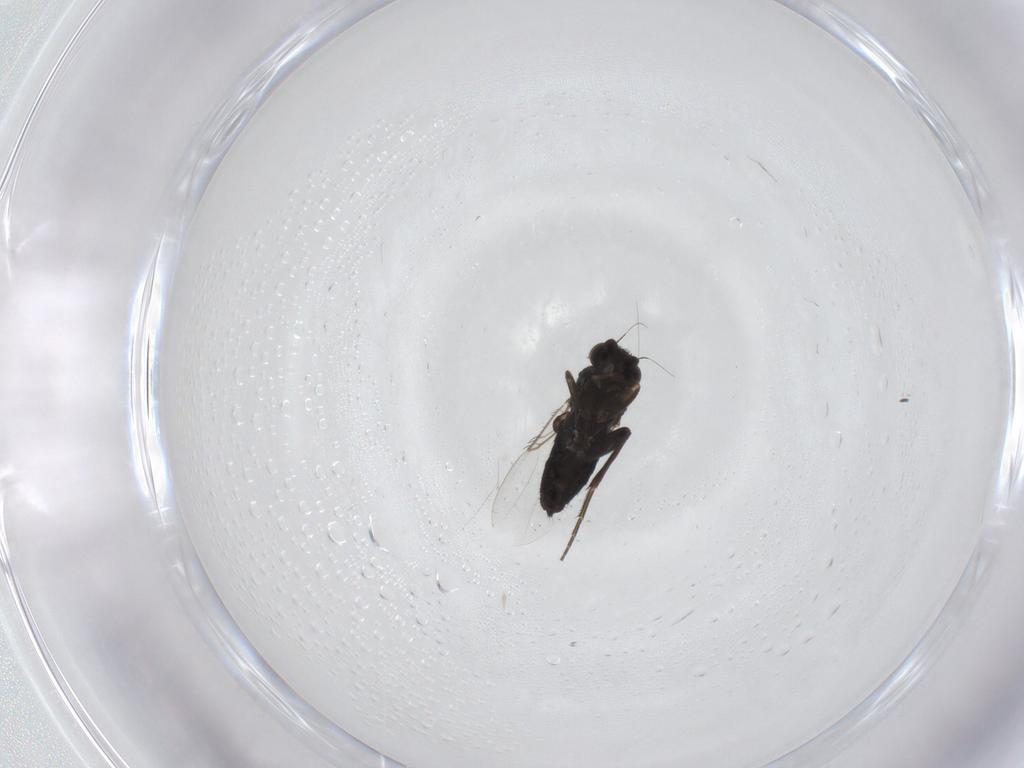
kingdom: Animalia
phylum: Arthropoda
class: Insecta
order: Diptera
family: Phoridae
